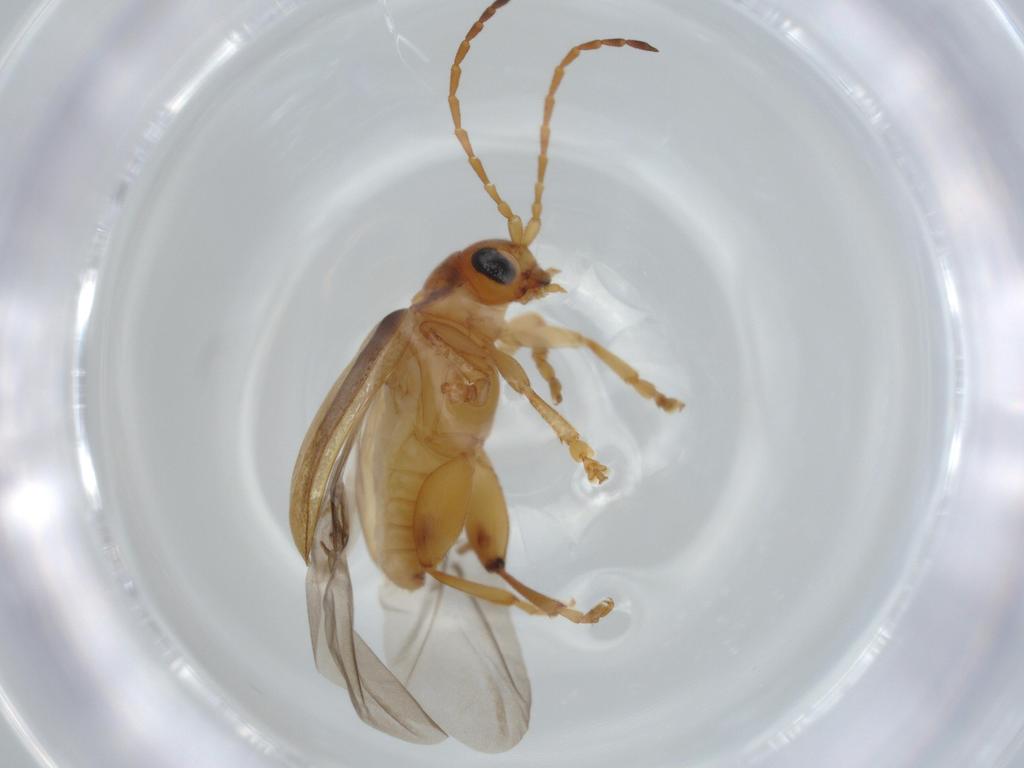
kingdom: Animalia
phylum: Arthropoda
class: Insecta
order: Coleoptera
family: Chrysomelidae
